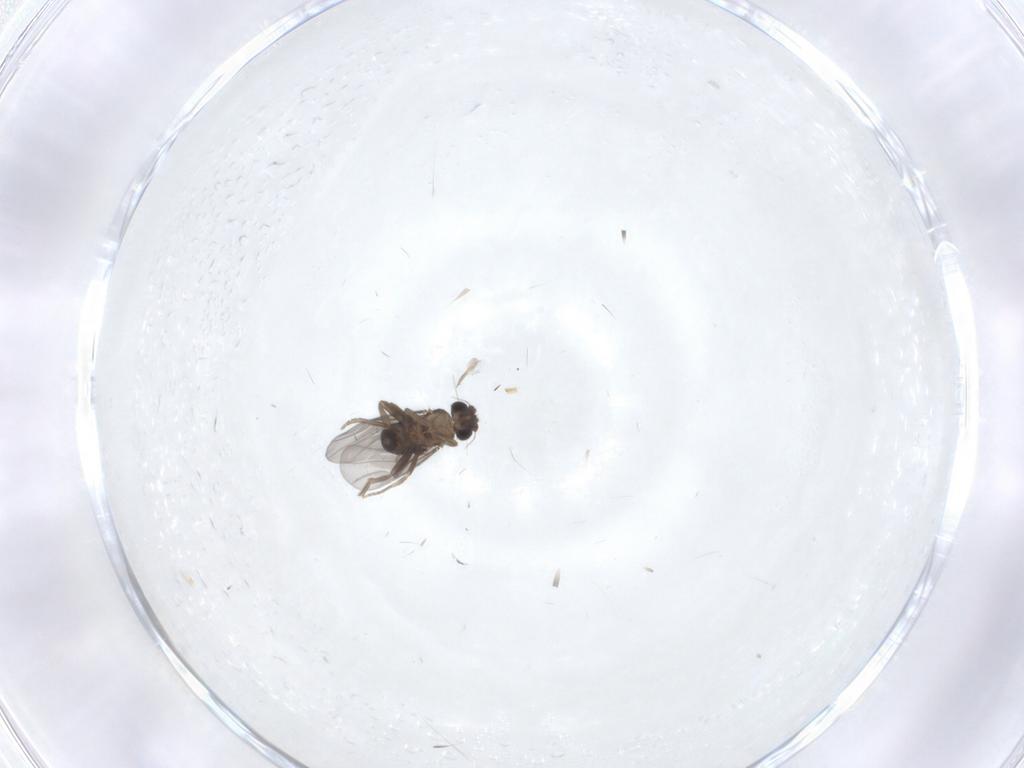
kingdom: Animalia
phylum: Arthropoda
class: Insecta
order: Diptera
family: Phoridae
